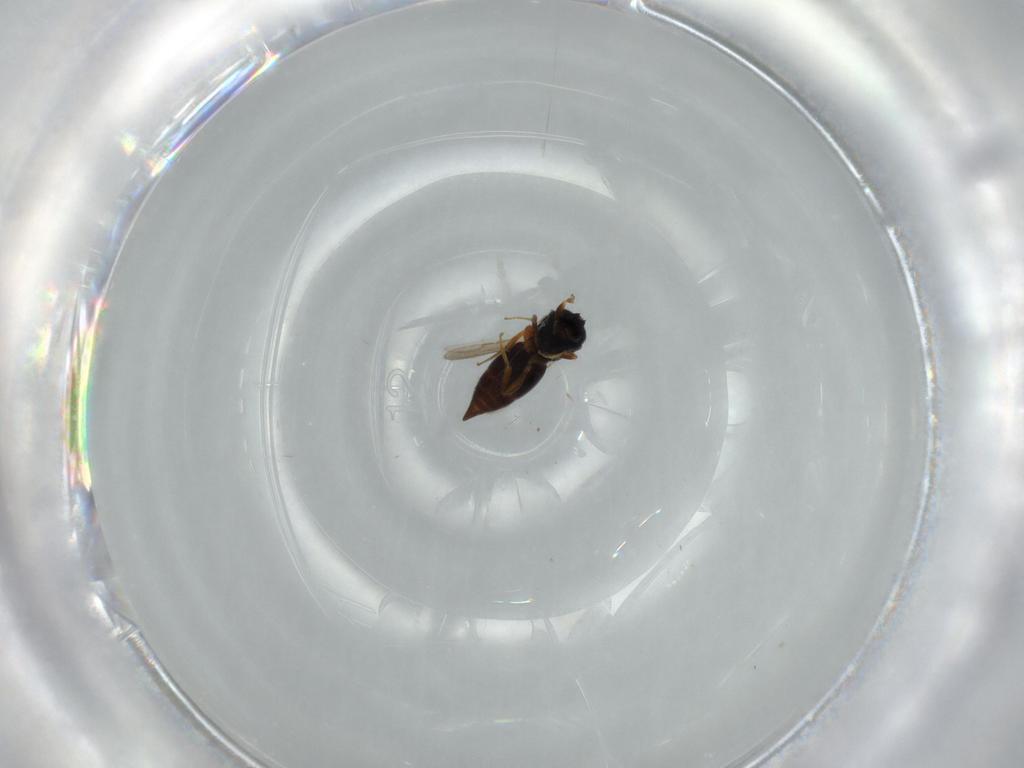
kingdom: Animalia
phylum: Arthropoda
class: Insecta
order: Hymenoptera
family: Ceraphronidae
